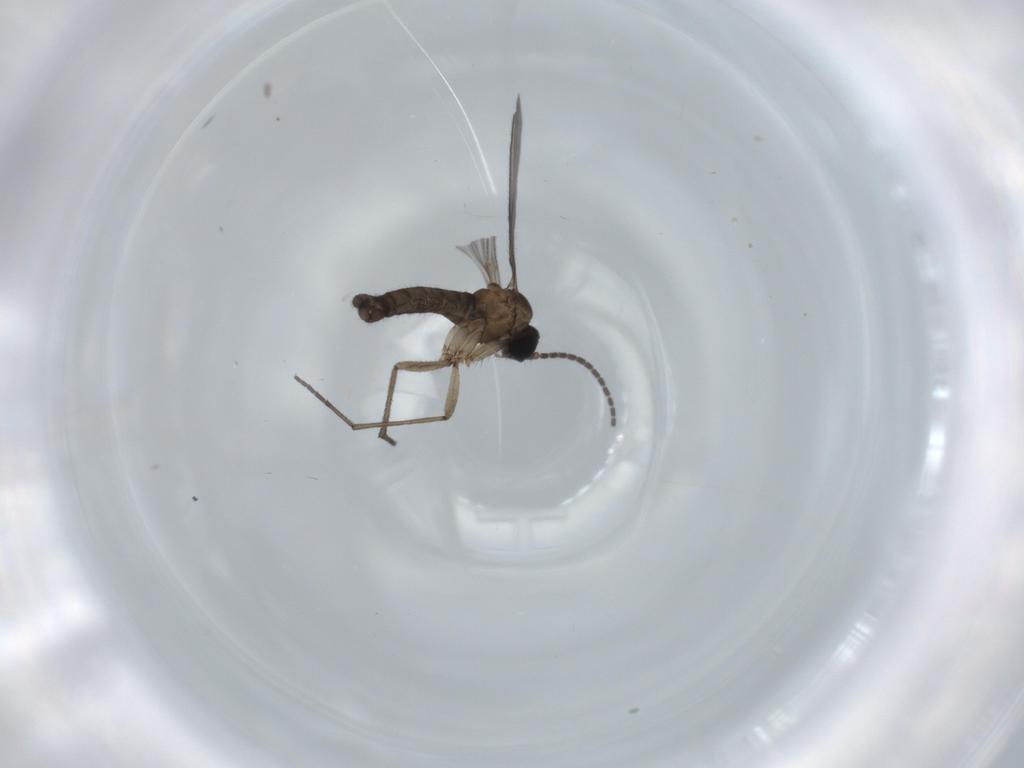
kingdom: Animalia
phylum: Arthropoda
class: Insecta
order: Diptera
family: Sciaridae
